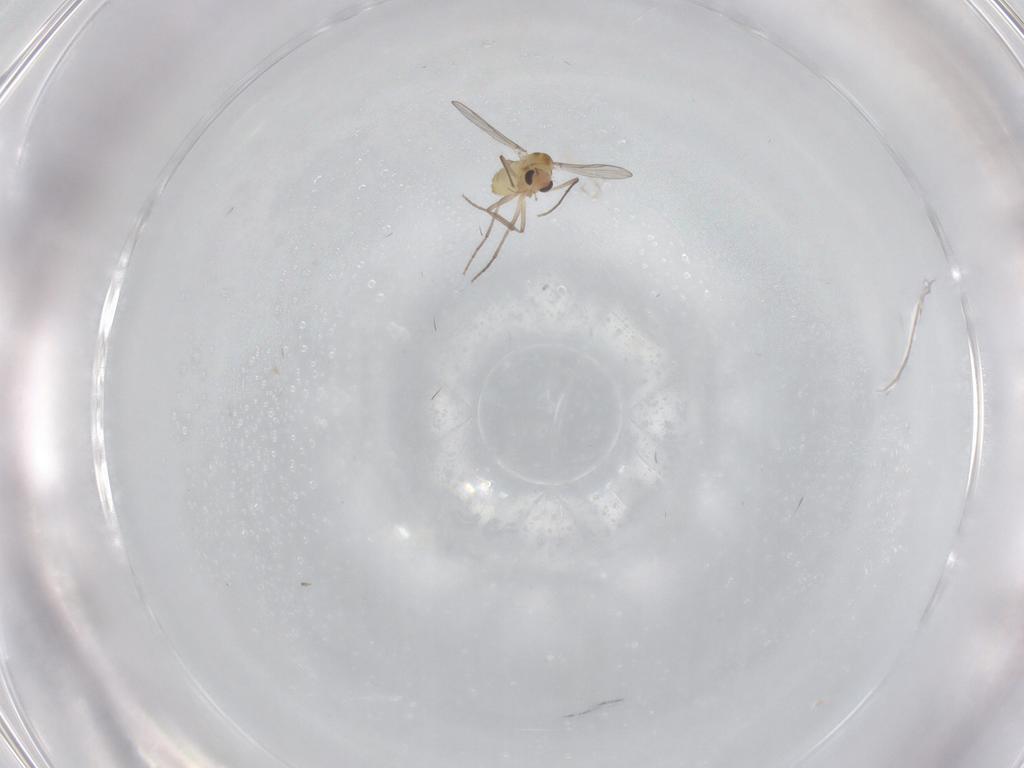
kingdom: Animalia
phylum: Arthropoda
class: Insecta
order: Diptera
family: Chironomidae
